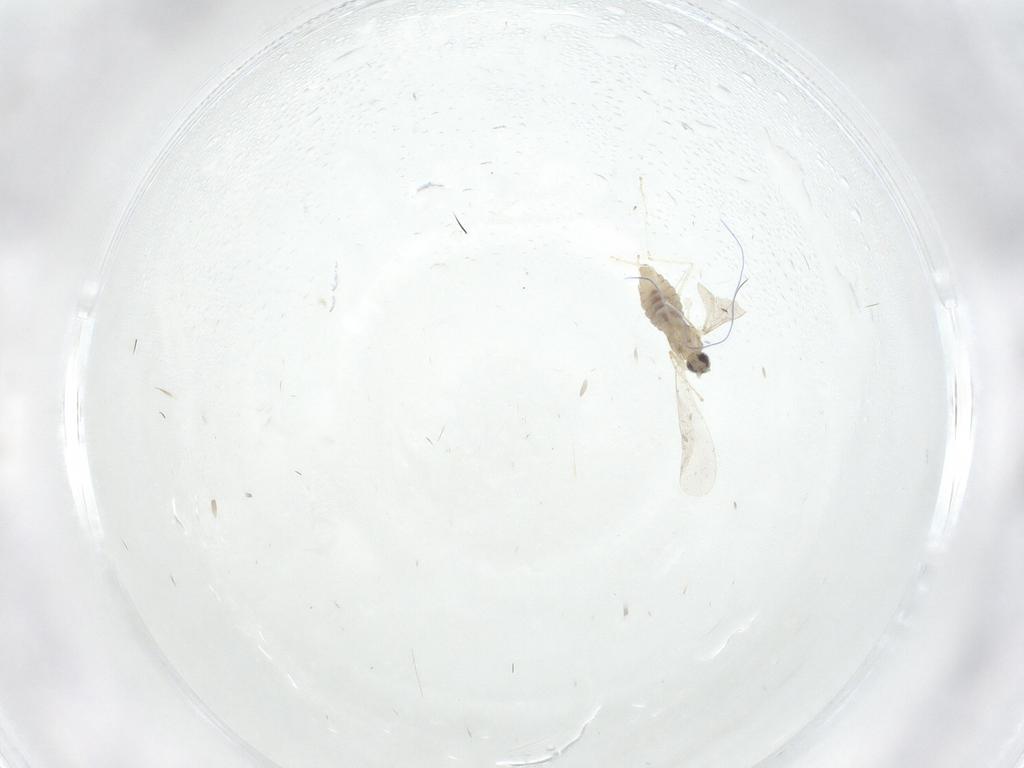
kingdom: Animalia
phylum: Arthropoda
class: Insecta
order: Diptera
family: Cecidomyiidae
